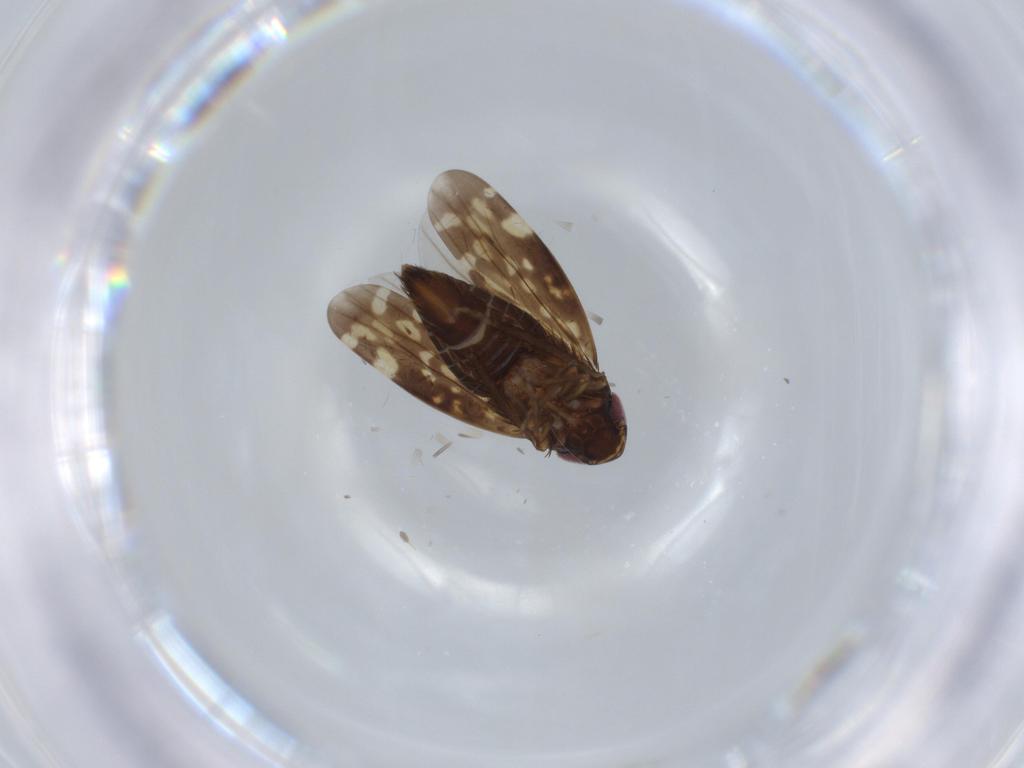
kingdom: Animalia
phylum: Arthropoda
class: Insecta
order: Hemiptera
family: Cicadellidae
